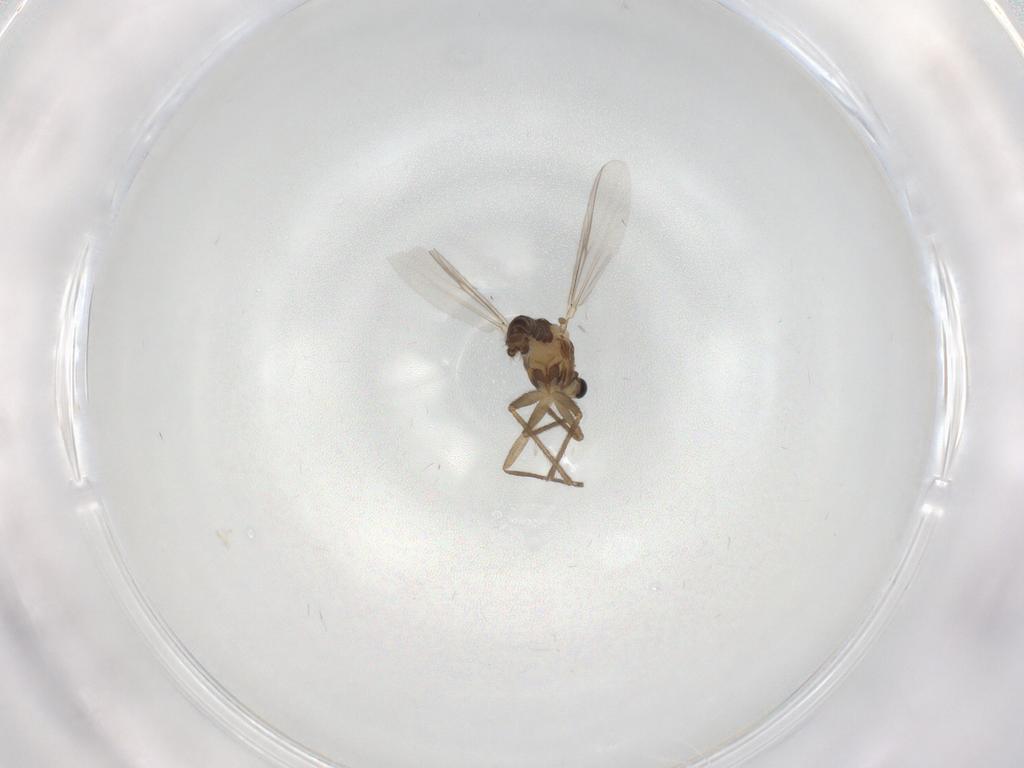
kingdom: Animalia
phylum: Arthropoda
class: Insecta
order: Diptera
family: Chironomidae
